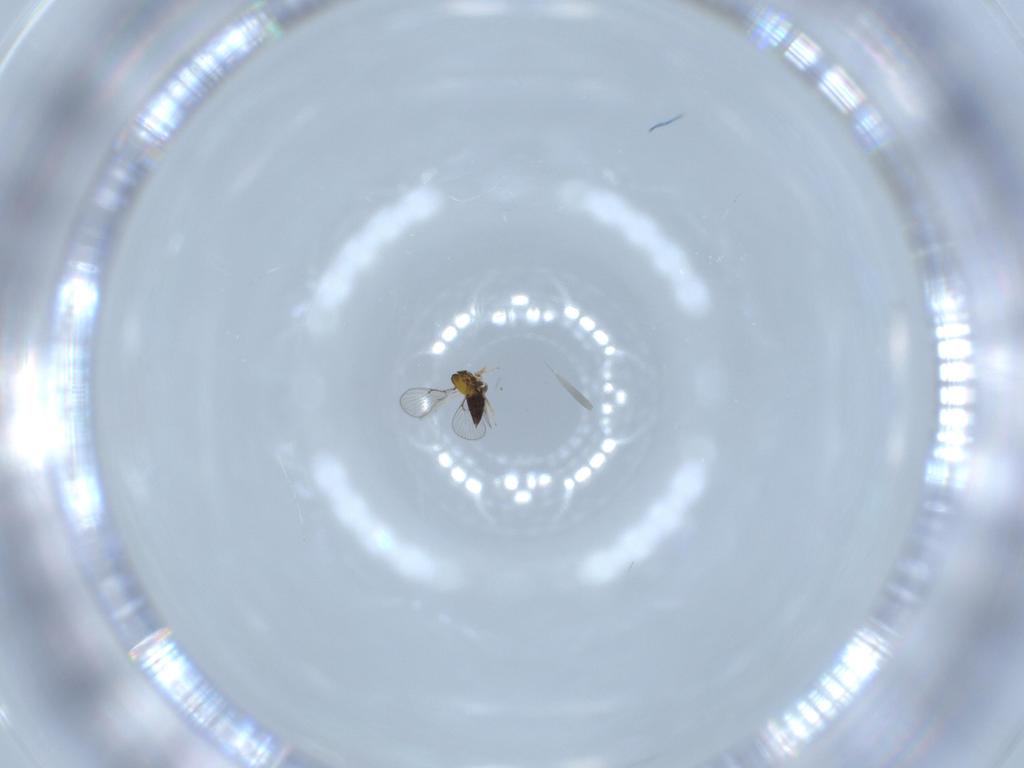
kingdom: Animalia
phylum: Arthropoda
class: Insecta
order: Hymenoptera
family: Trichogrammatidae
